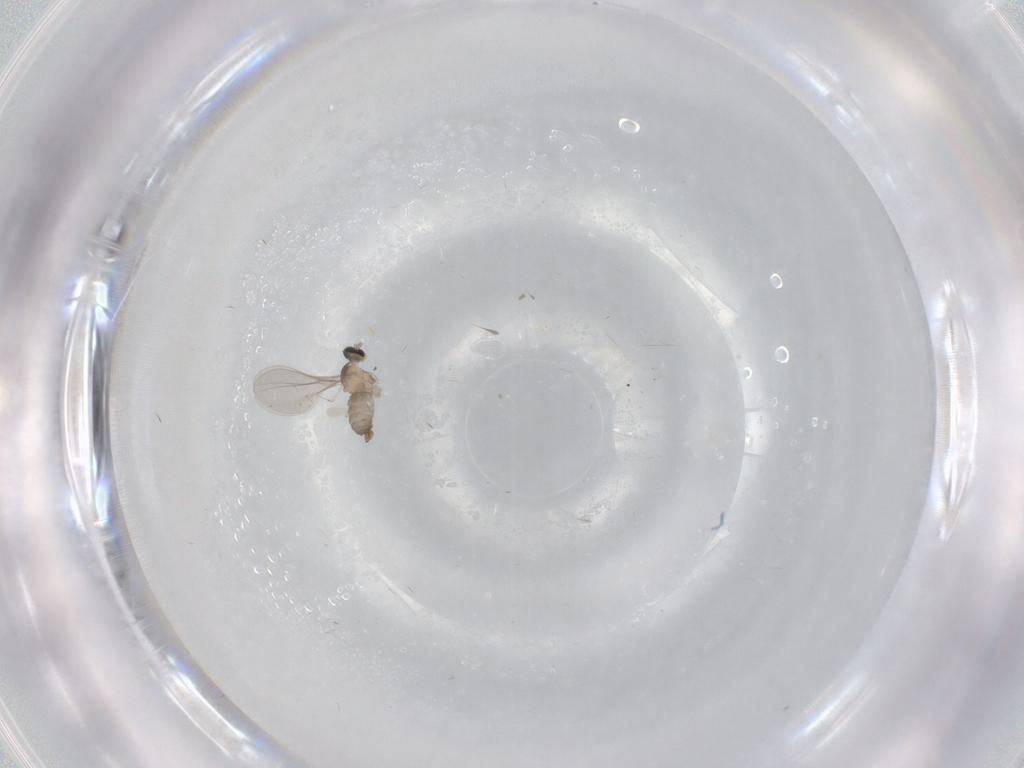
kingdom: Animalia
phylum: Arthropoda
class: Insecta
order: Diptera
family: Cecidomyiidae
